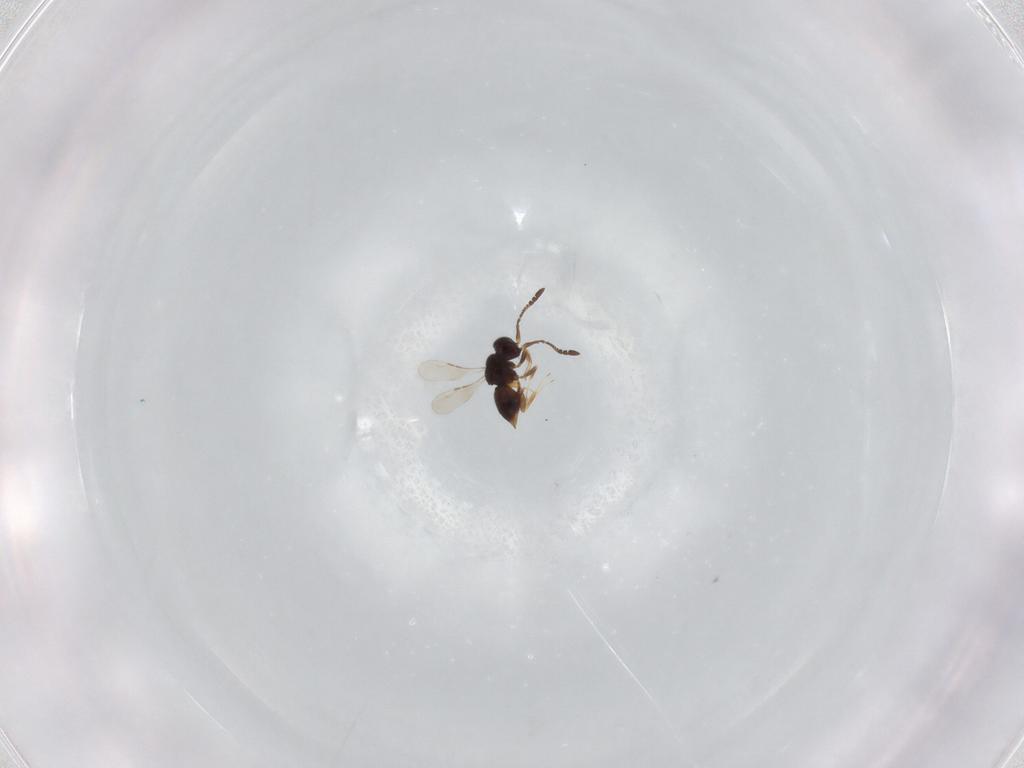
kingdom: Animalia
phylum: Arthropoda
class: Insecta
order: Hymenoptera
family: Ceraphronidae
